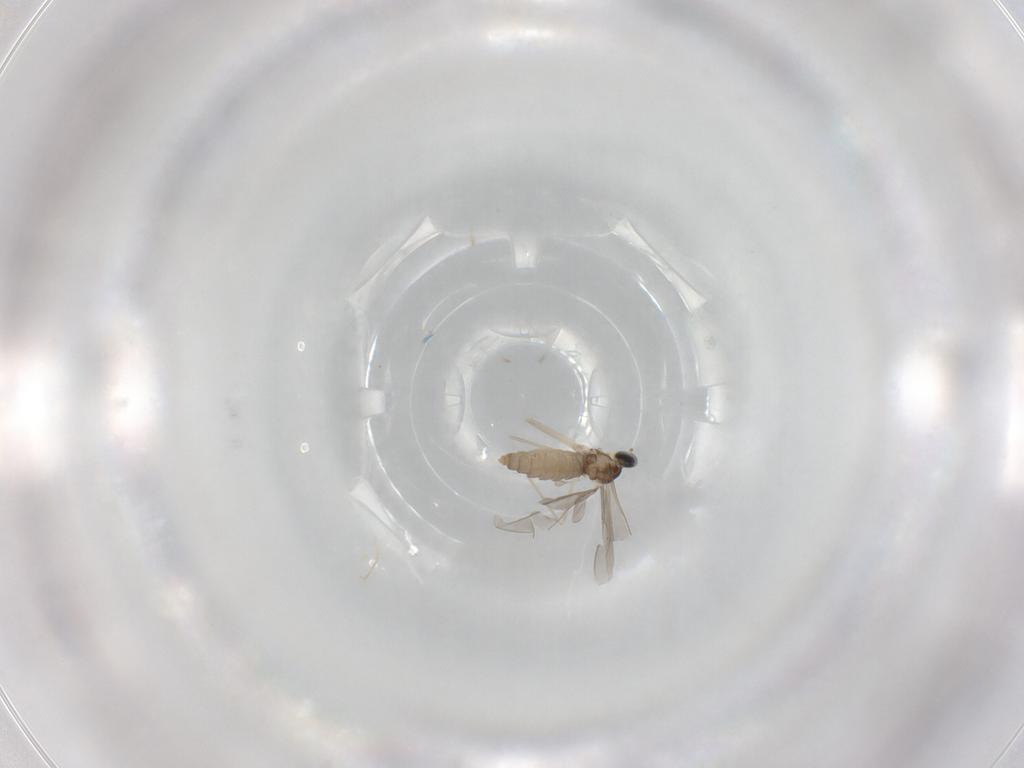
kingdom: Animalia
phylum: Arthropoda
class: Insecta
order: Diptera
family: Cecidomyiidae
